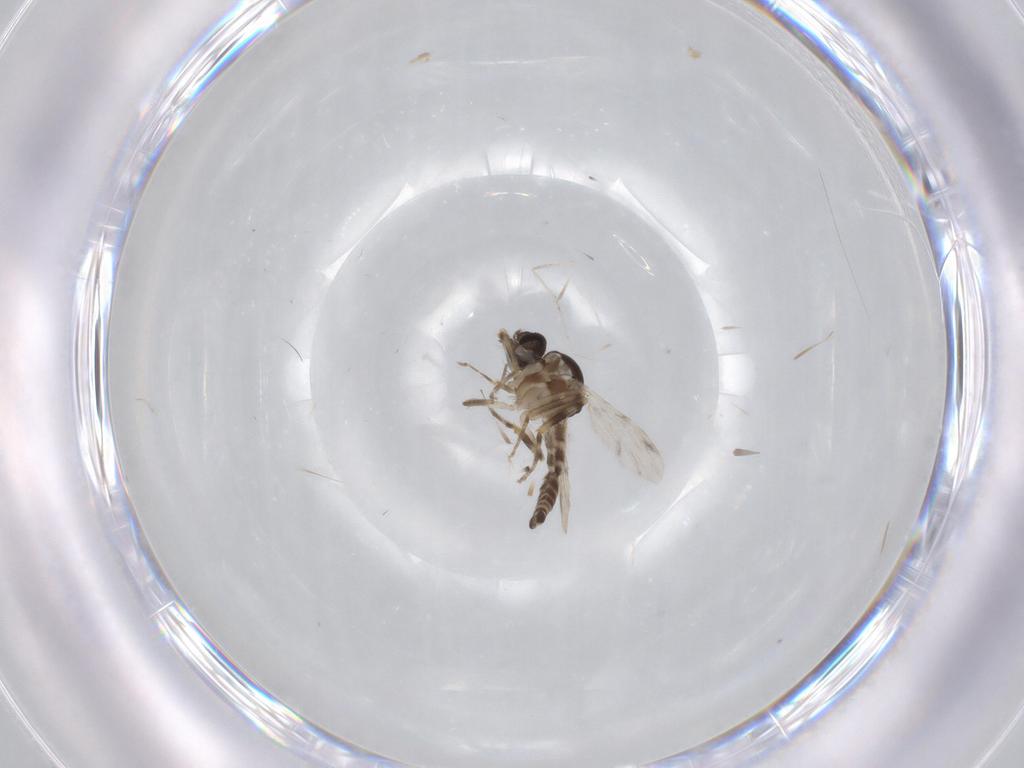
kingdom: Animalia
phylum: Arthropoda
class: Insecta
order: Diptera
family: Ceratopogonidae
